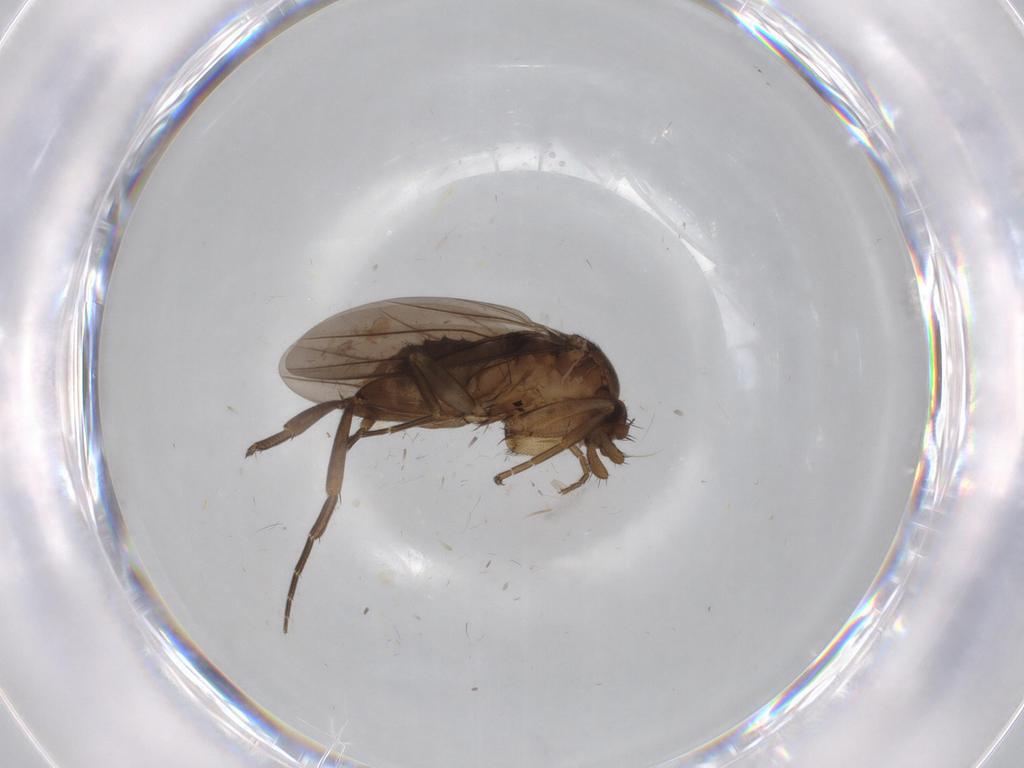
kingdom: Animalia
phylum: Arthropoda
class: Insecta
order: Diptera
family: Phoridae
